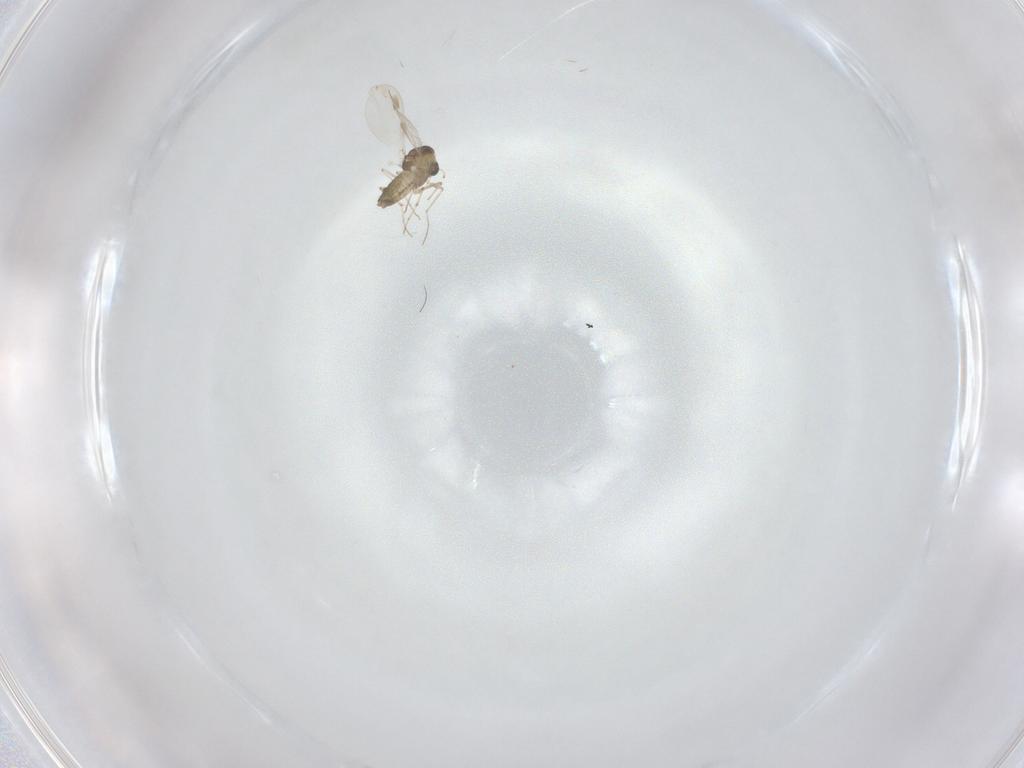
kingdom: Animalia
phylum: Arthropoda
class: Insecta
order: Diptera
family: Chironomidae
